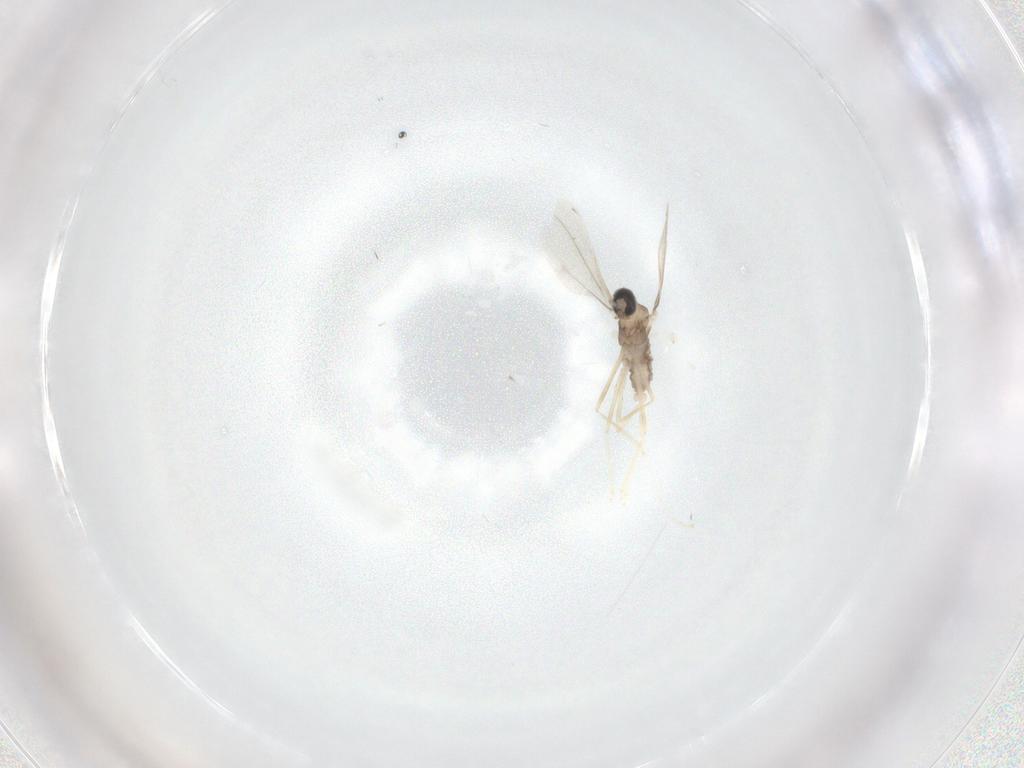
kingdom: Animalia
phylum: Arthropoda
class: Insecta
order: Diptera
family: Cecidomyiidae
